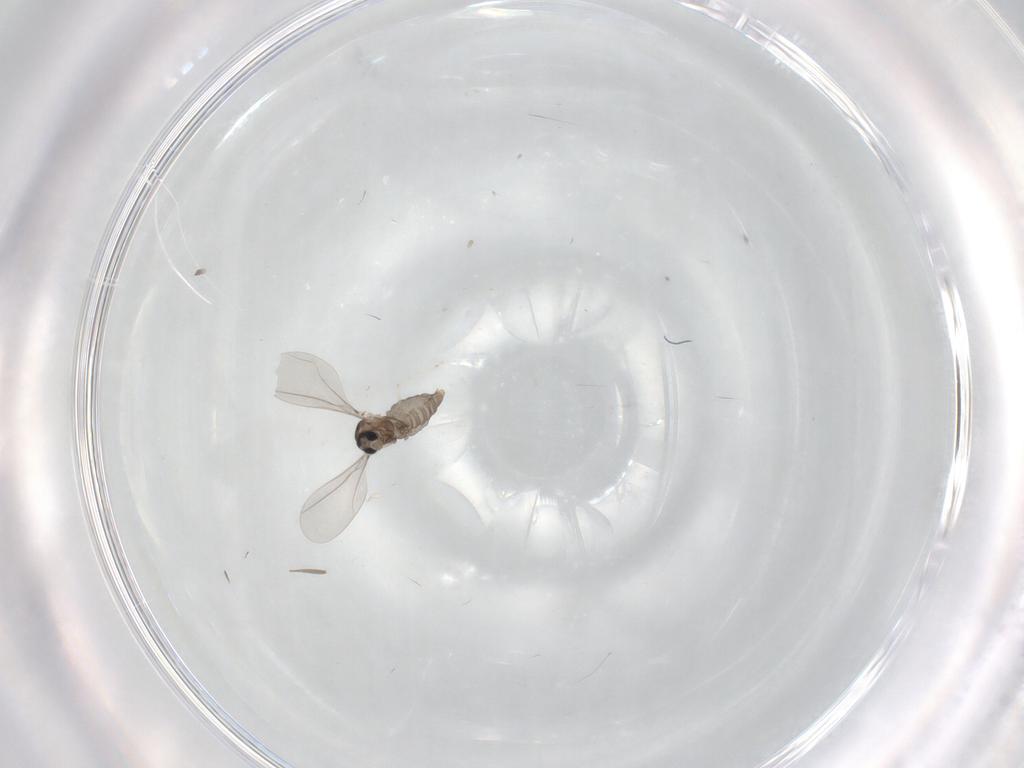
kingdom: Animalia
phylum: Arthropoda
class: Insecta
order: Diptera
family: Cecidomyiidae
